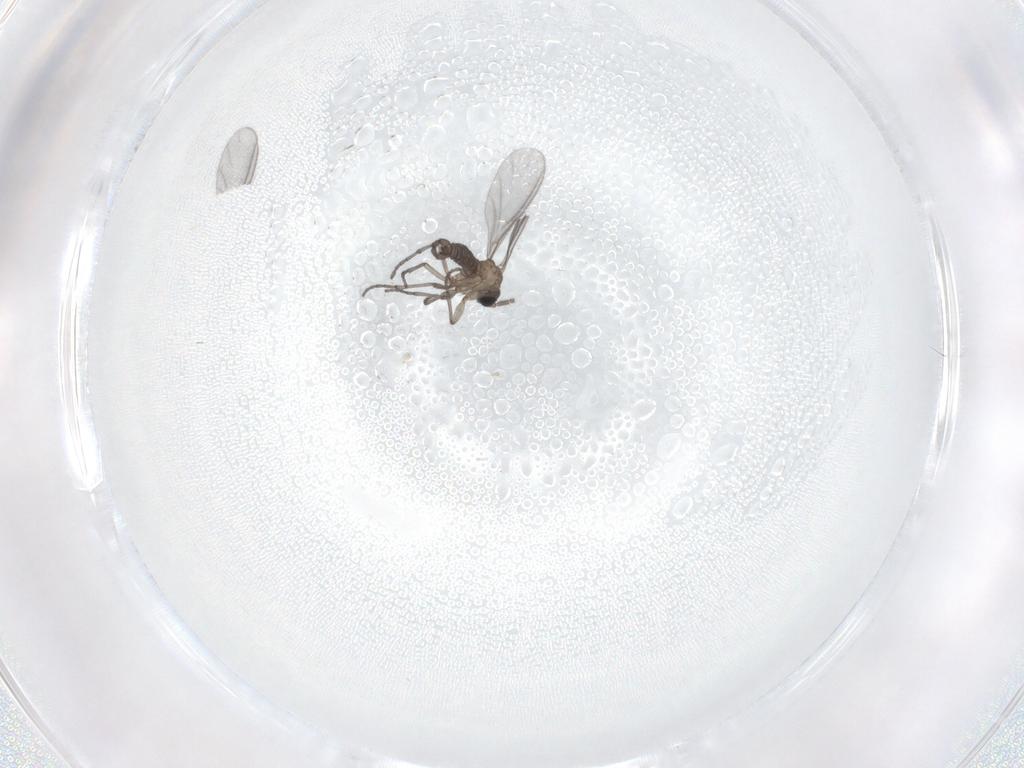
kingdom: Animalia
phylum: Arthropoda
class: Insecta
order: Diptera
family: Sciaridae
